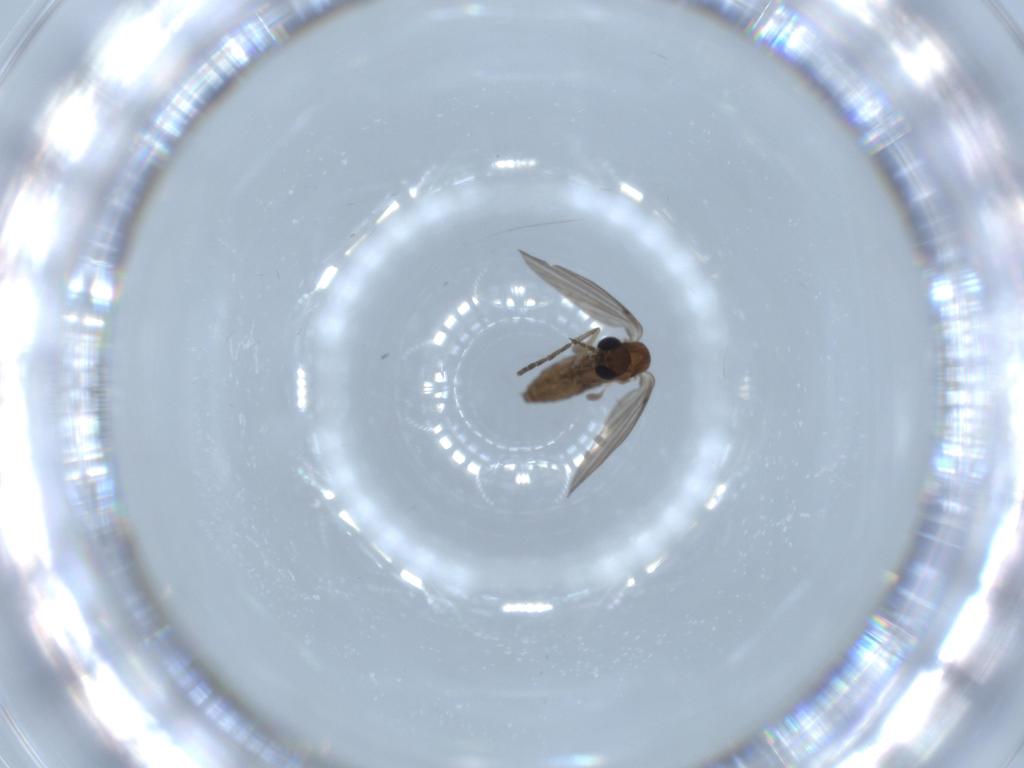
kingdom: Animalia
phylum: Arthropoda
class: Insecta
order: Diptera
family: Psychodidae
